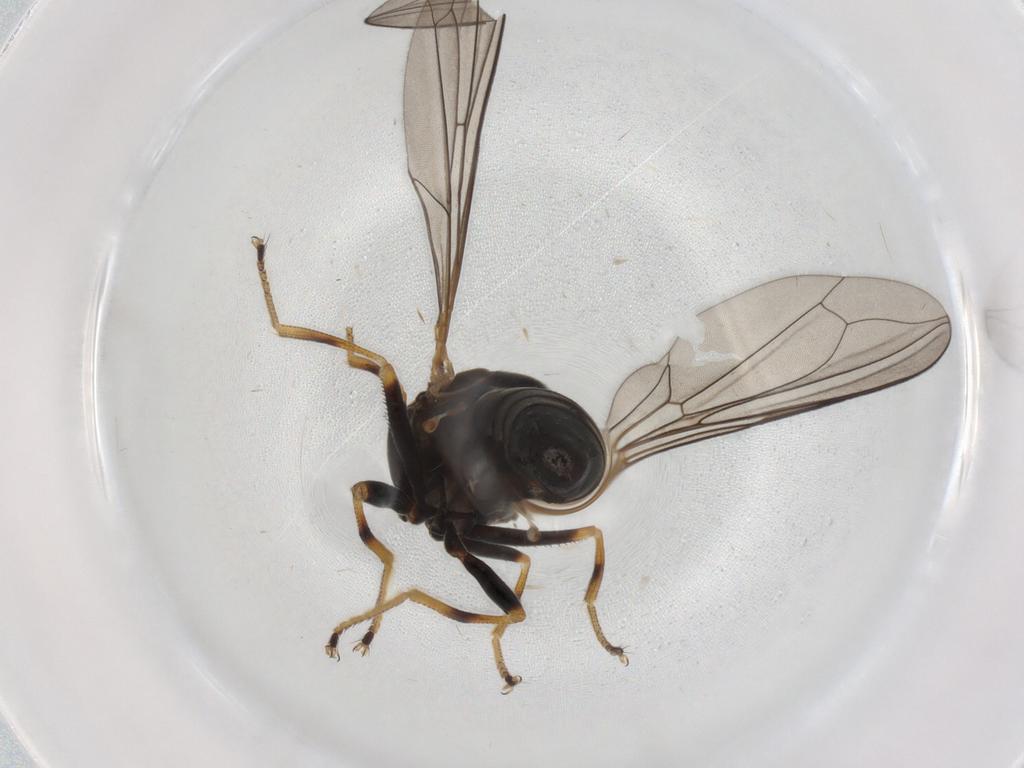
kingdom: Animalia
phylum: Arthropoda
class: Insecta
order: Diptera
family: Pipunculidae
